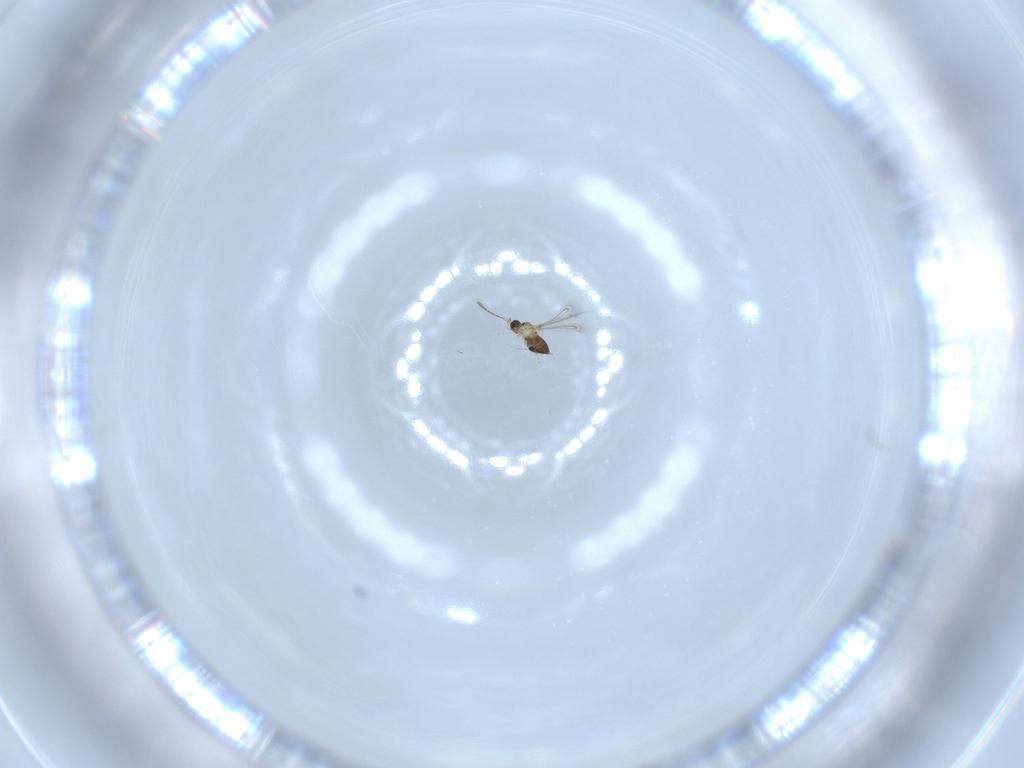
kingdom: Animalia
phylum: Arthropoda
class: Insecta
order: Hymenoptera
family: Mymaridae
